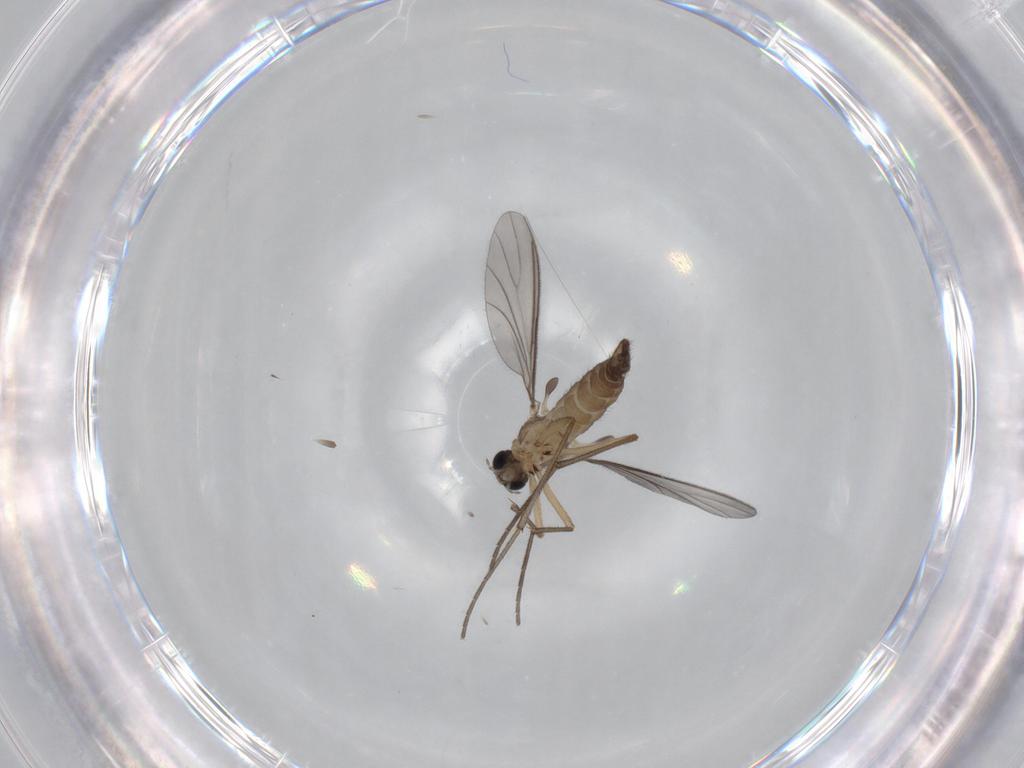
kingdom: Animalia
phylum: Arthropoda
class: Insecta
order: Diptera
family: Sciaridae
